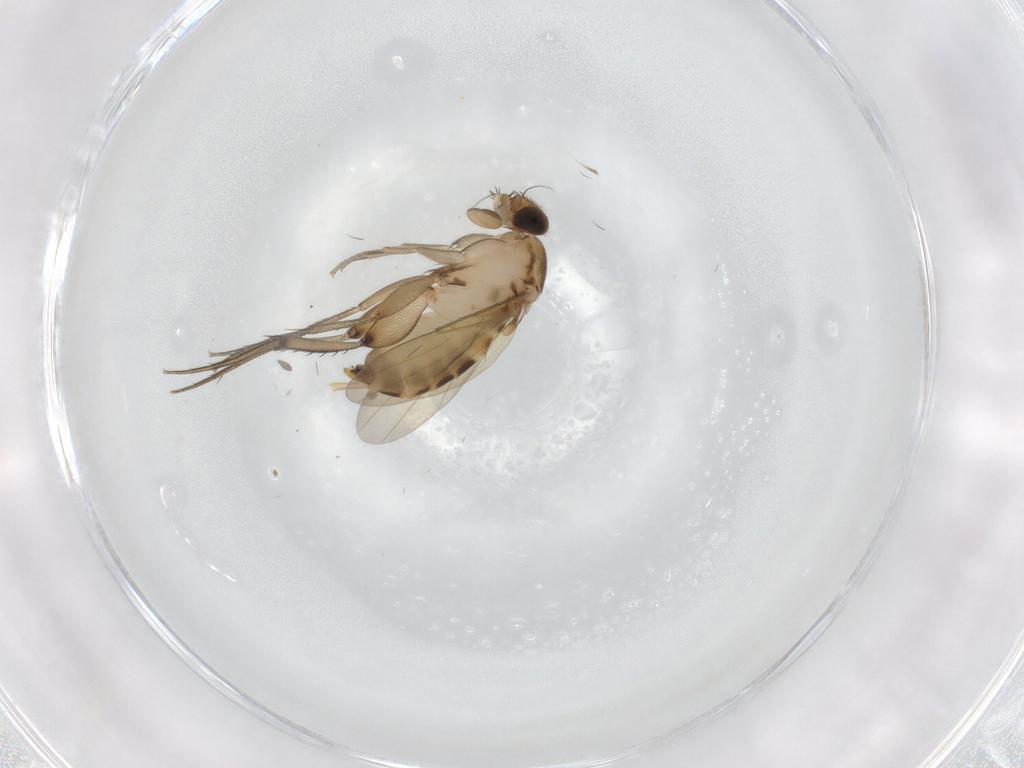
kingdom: Animalia
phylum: Arthropoda
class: Insecta
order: Diptera
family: Phoridae
